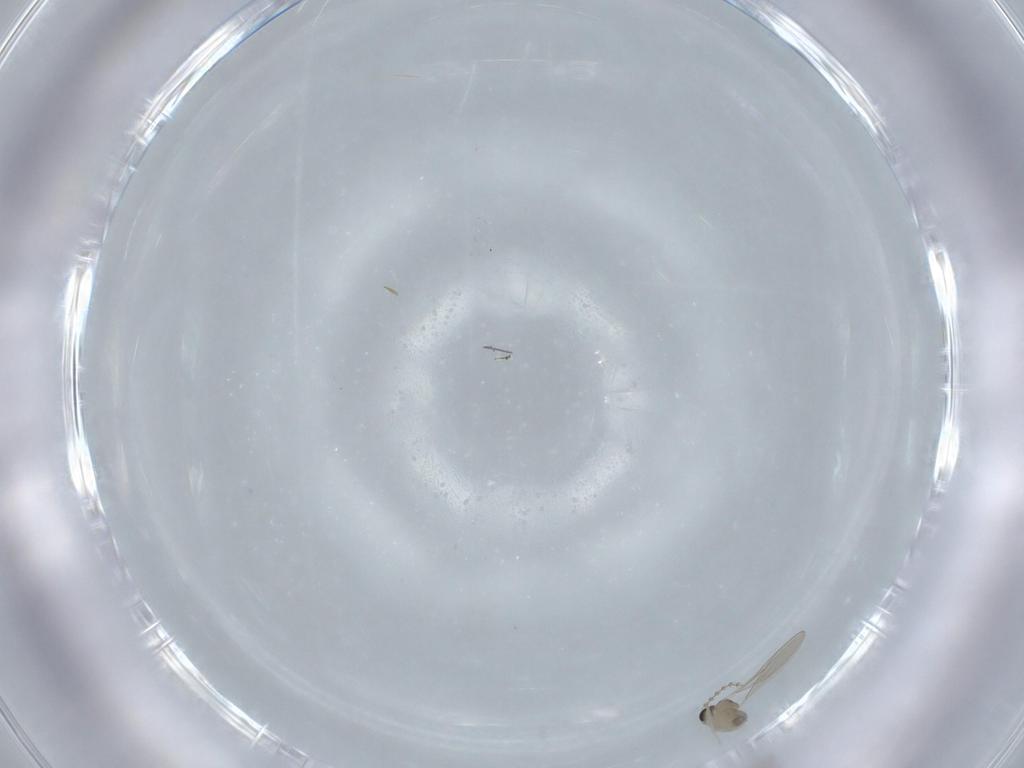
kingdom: Animalia
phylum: Arthropoda
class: Insecta
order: Diptera
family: Cecidomyiidae
